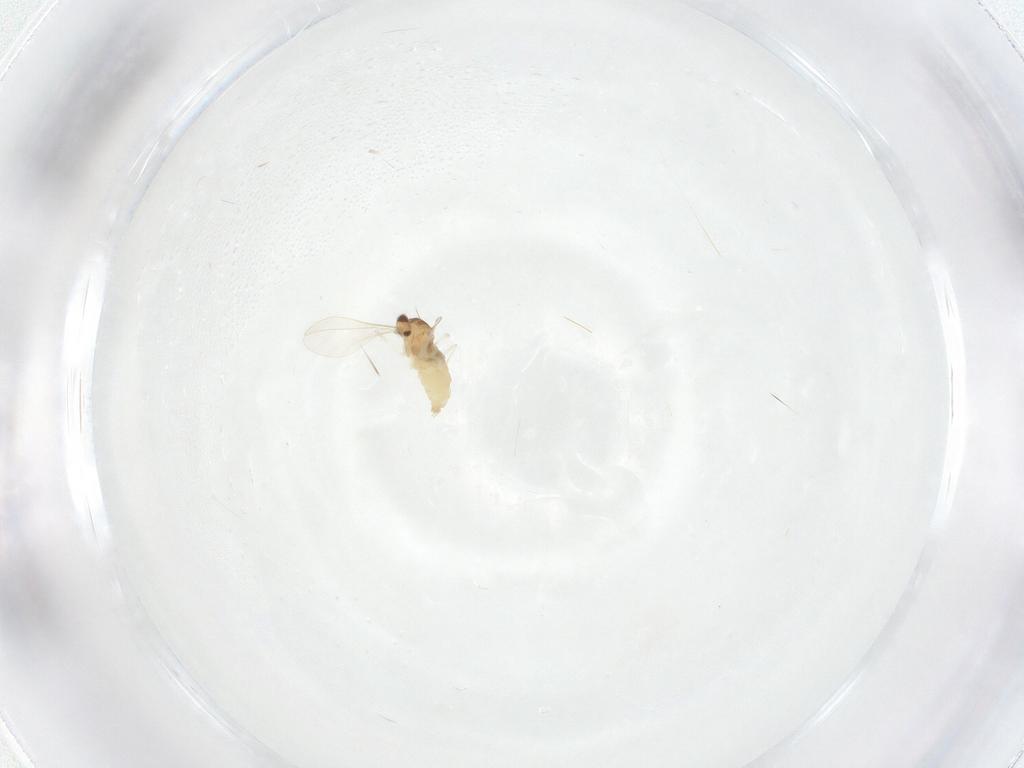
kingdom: Animalia
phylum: Arthropoda
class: Insecta
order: Diptera
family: Cecidomyiidae
